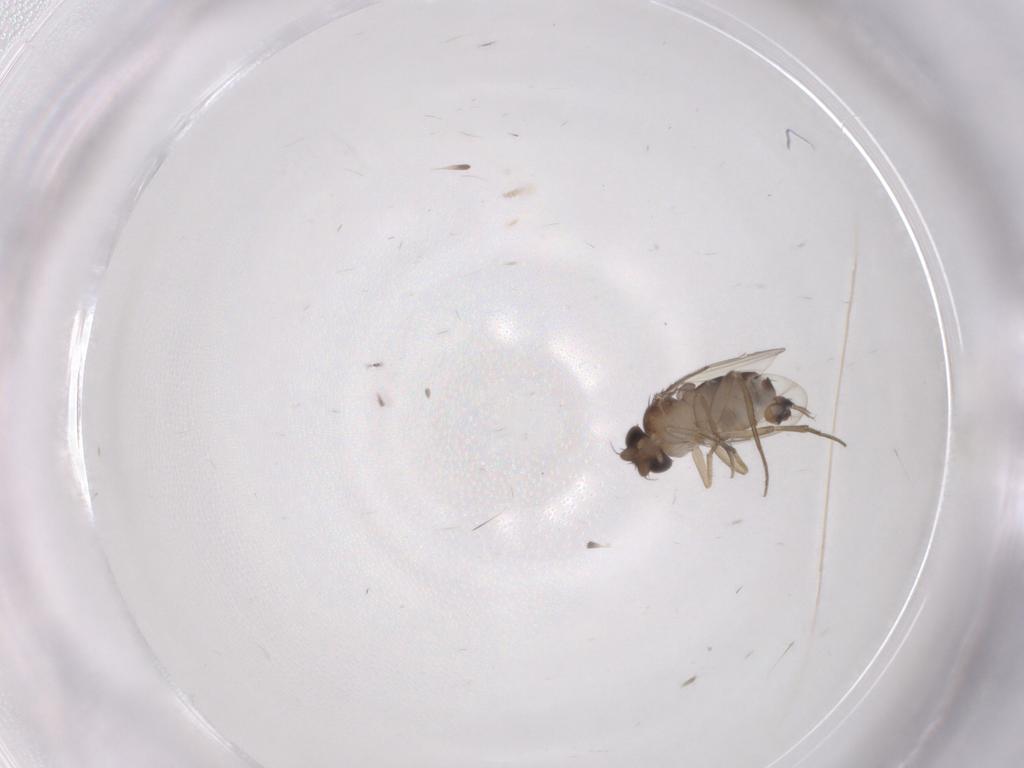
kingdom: Animalia
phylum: Arthropoda
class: Insecta
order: Diptera
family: Phoridae
